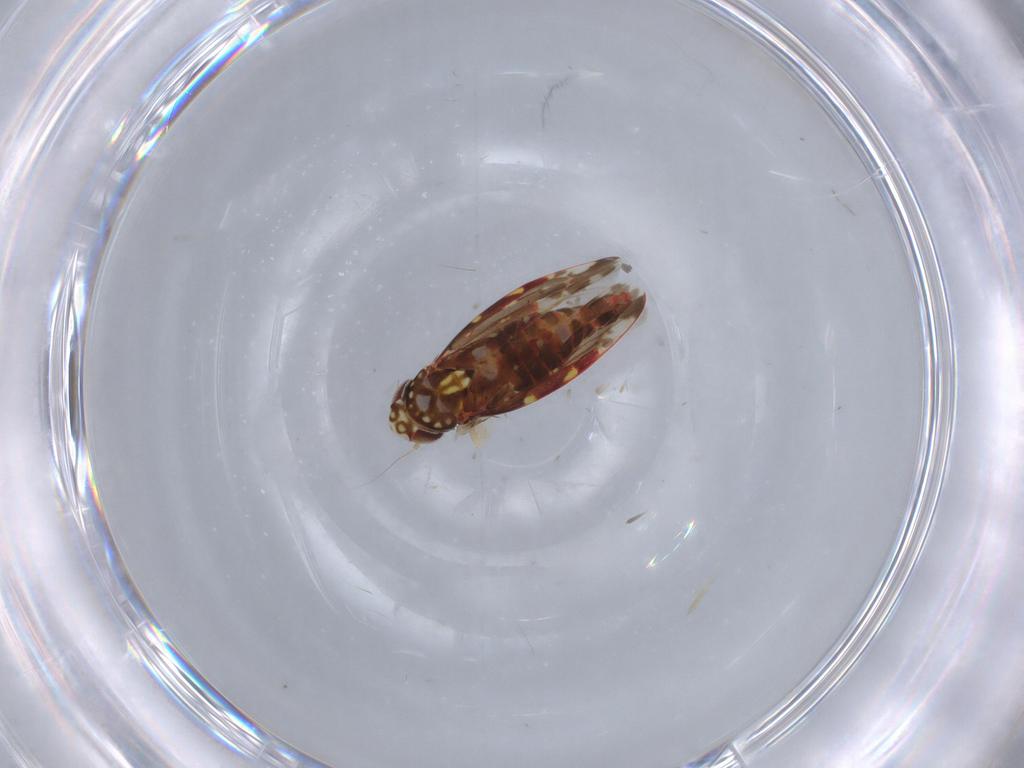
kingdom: Animalia
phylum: Arthropoda
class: Insecta
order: Hemiptera
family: Cicadellidae
